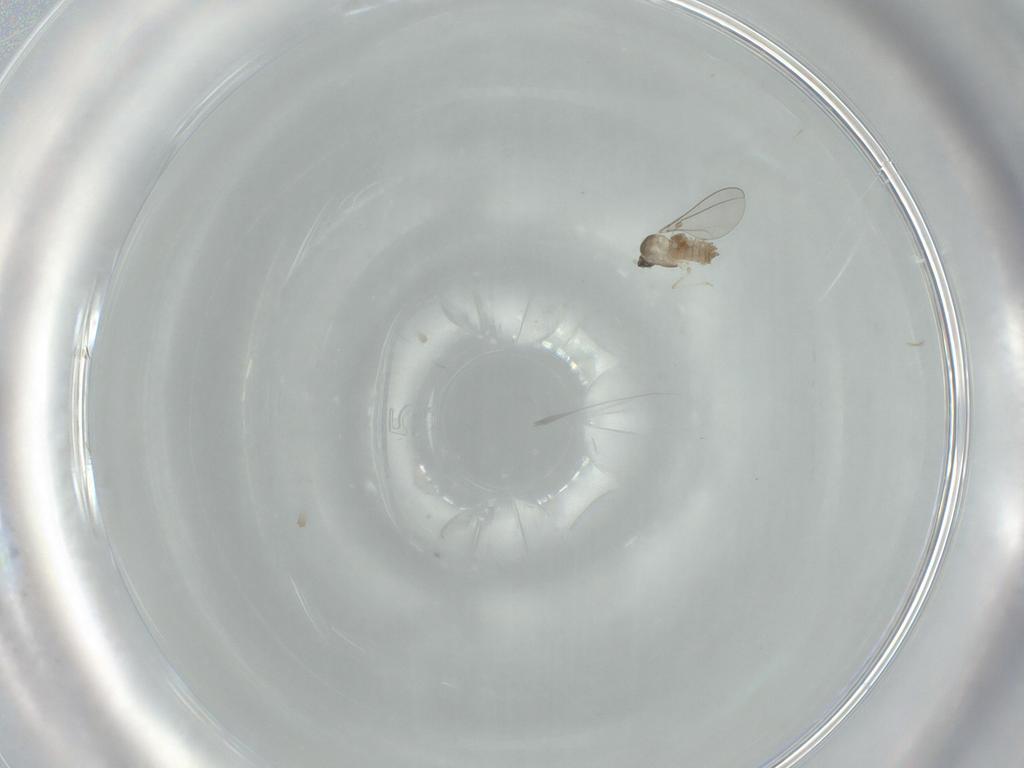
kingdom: Animalia
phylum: Arthropoda
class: Insecta
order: Diptera
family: Cecidomyiidae
